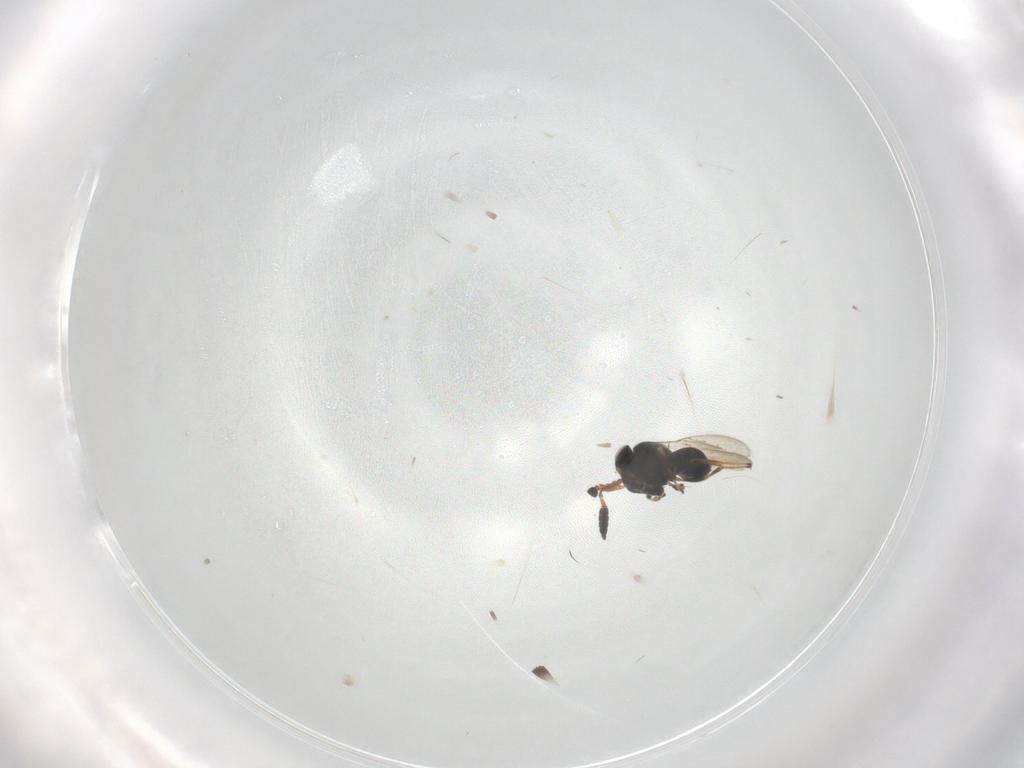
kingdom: Animalia
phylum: Arthropoda
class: Insecta
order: Hymenoptera
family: Scelionidae
